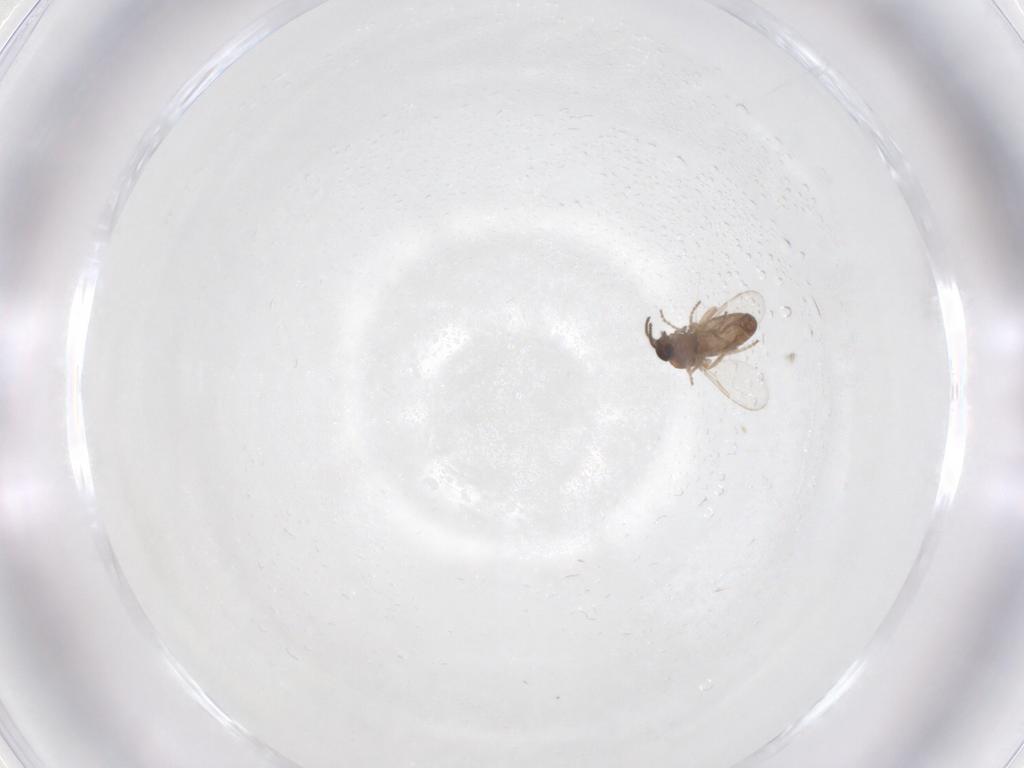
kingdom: Animalia
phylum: Arthropoda
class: Insecta
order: Diptera
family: Ceratopogonidae
